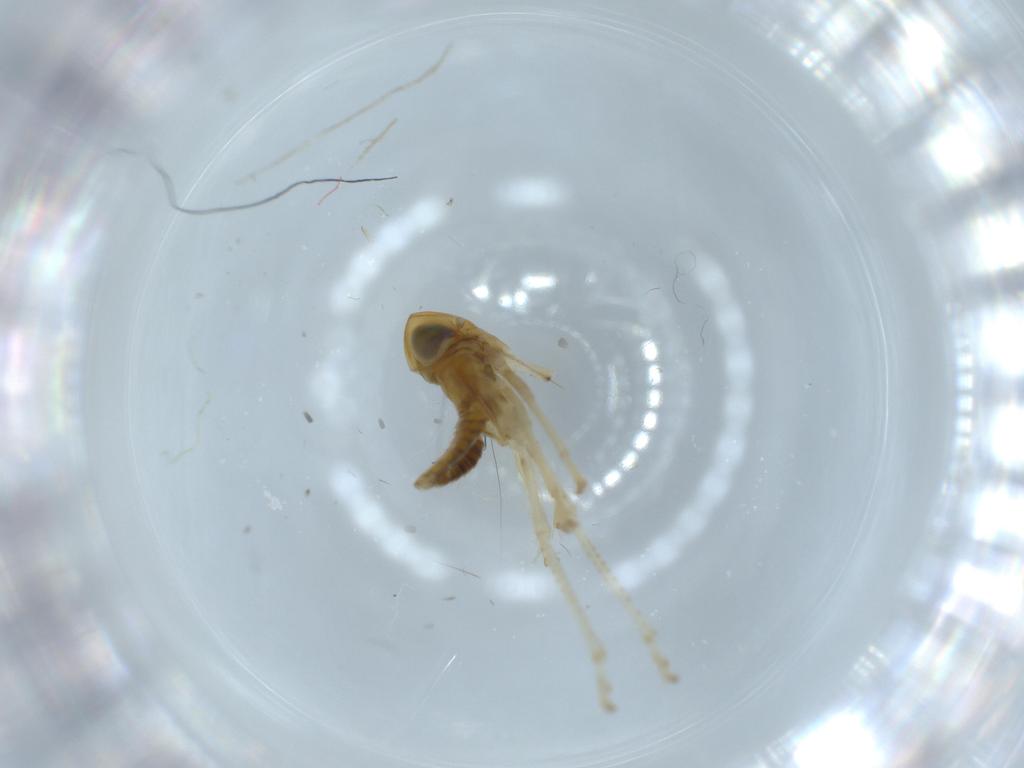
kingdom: Animalia
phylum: Arthropoda
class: Insecta
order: Hemiptera
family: Cicadellidae
